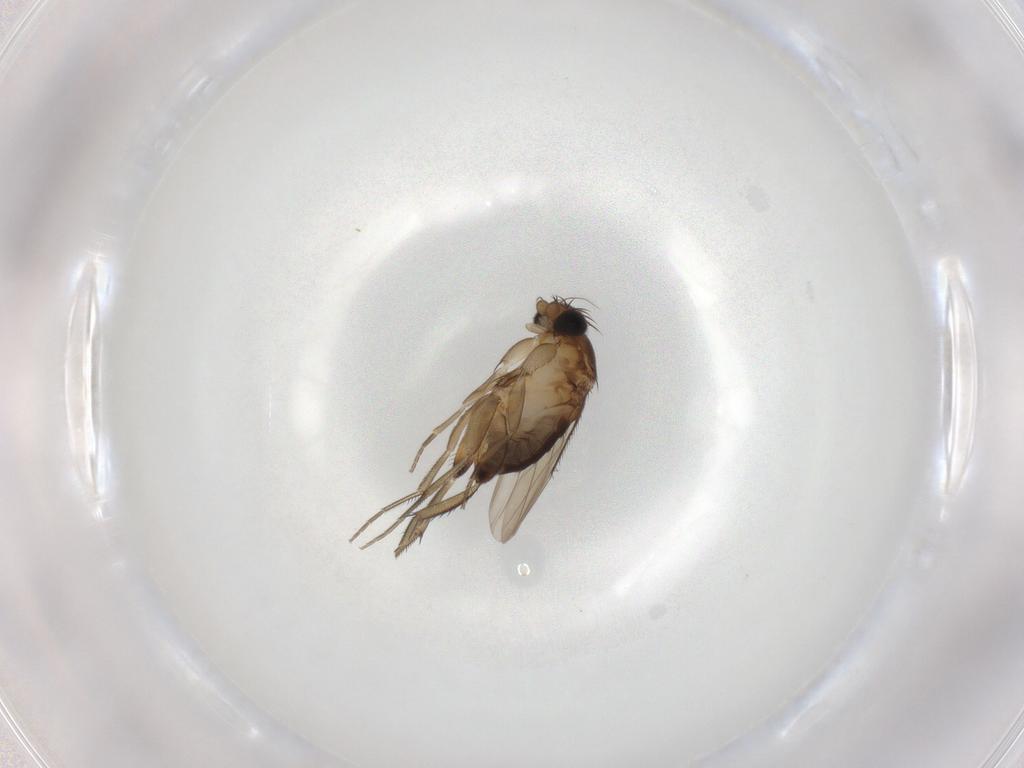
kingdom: Animalia
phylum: Arthropoda
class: Insecta
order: Diptera
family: Phoridae
